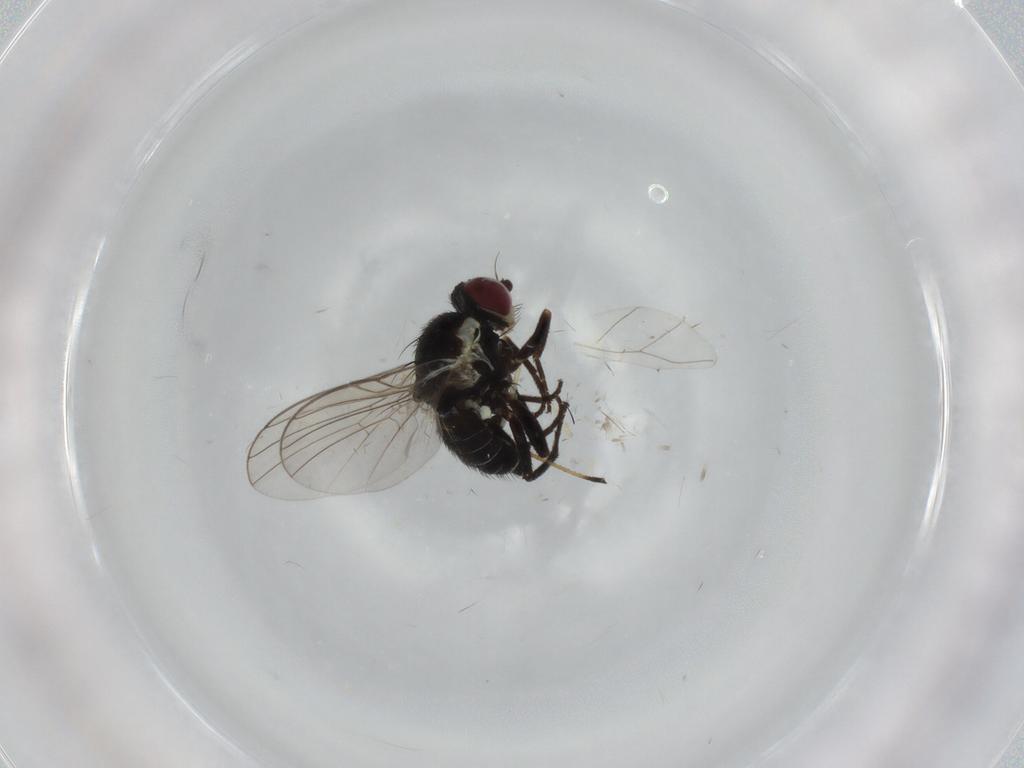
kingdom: Animalia
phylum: Arthropoda
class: Insecta
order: Diptera
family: Agromyzidae
